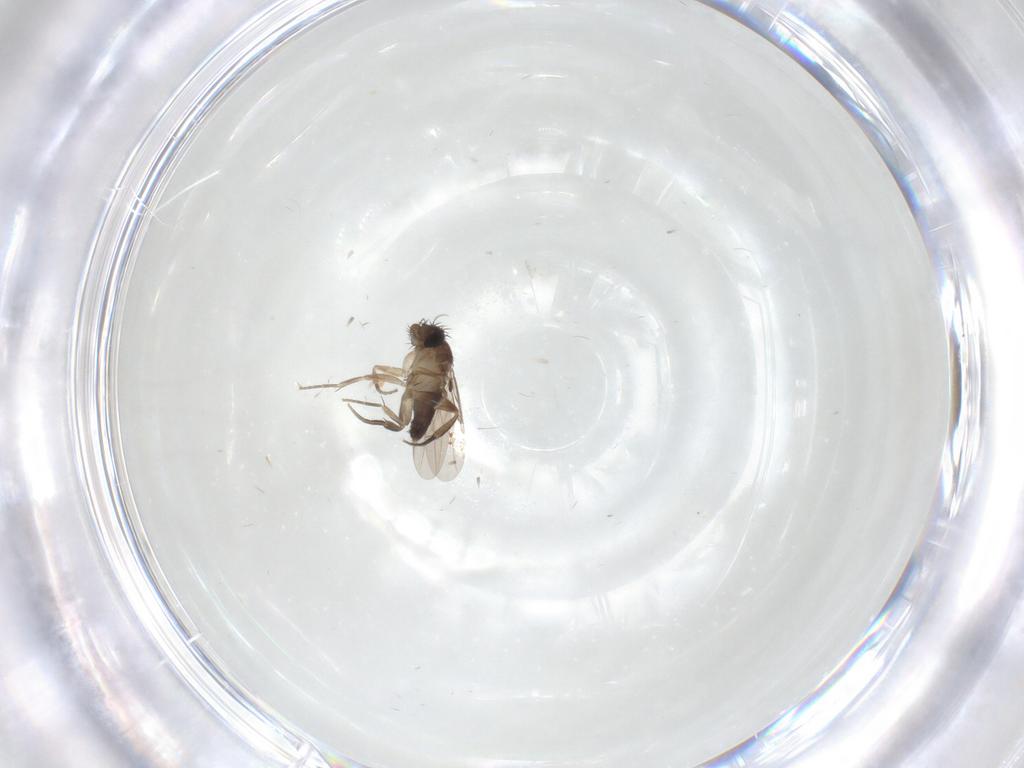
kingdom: Animalia
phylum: Arthropoda
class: Insecta
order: Diptera
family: Phoridae
